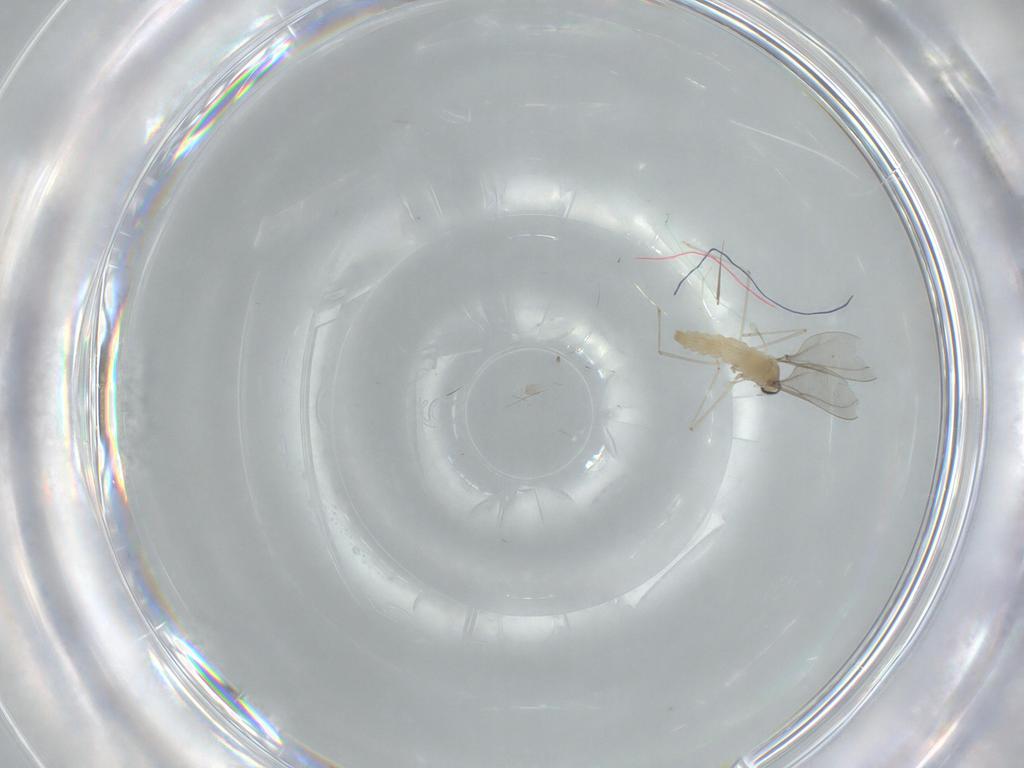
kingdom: Animalia
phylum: Arthropoda
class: Insecta
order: Diptera
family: Cecidomyiidae
